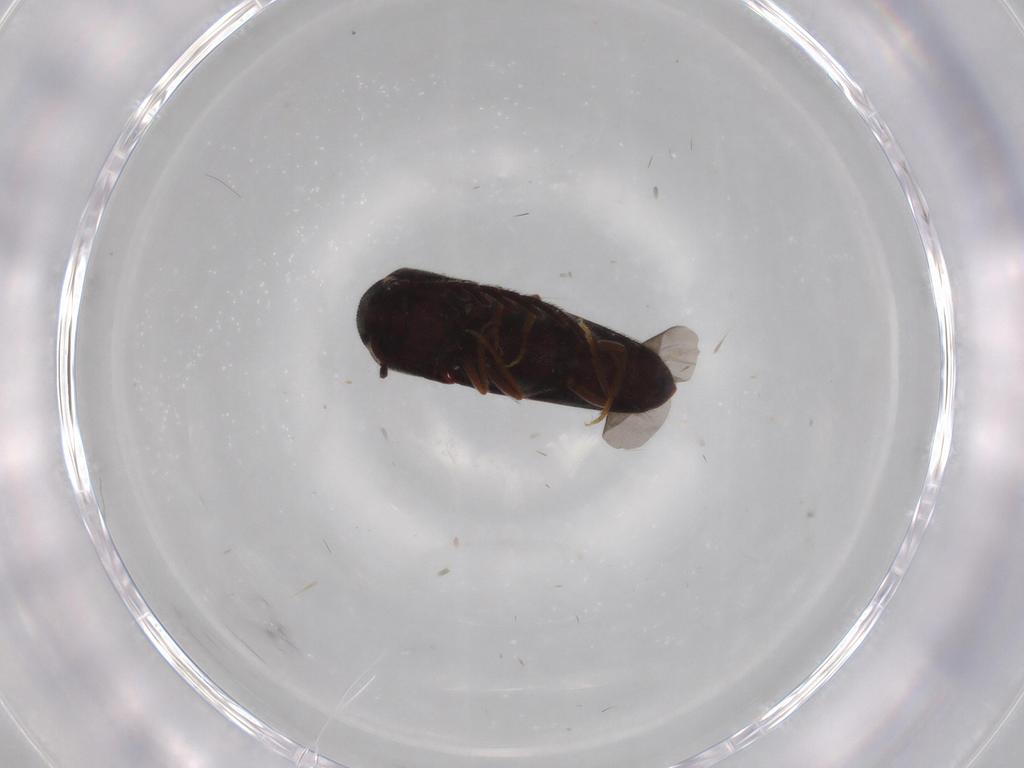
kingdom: Animalia
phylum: Arthropoda
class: Insecta
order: Coleoptera
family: Eucnemidae
